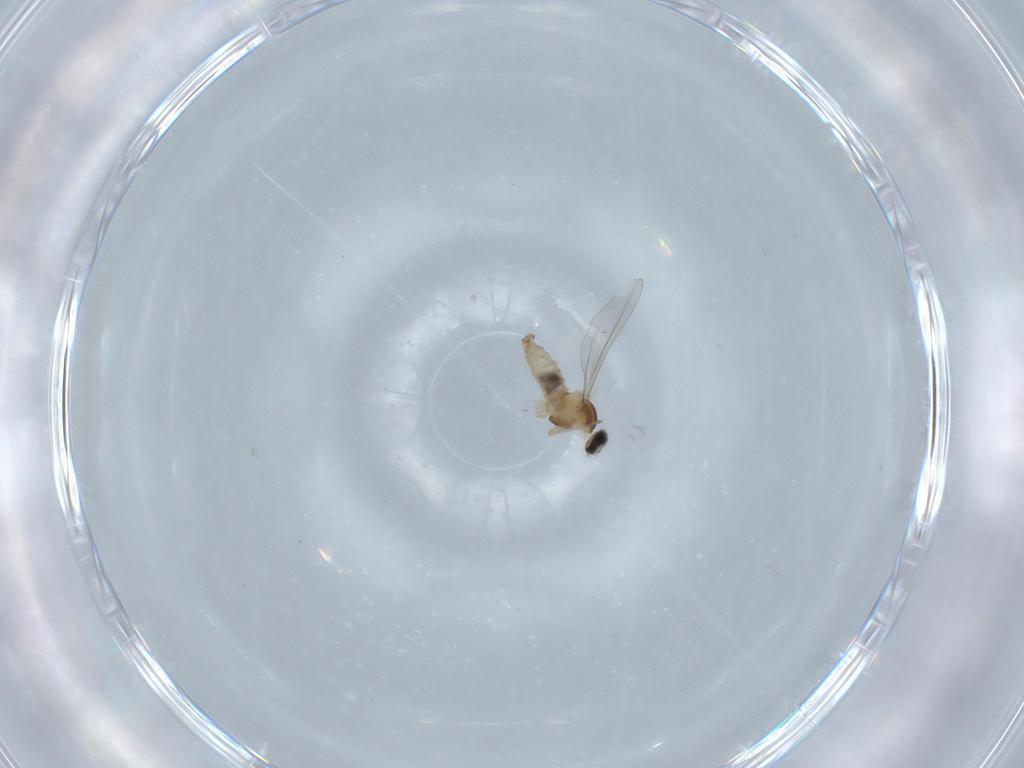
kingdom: Animalia
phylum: Arthropoda
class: Insecta
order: Diptera
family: Cecidomyiidae
